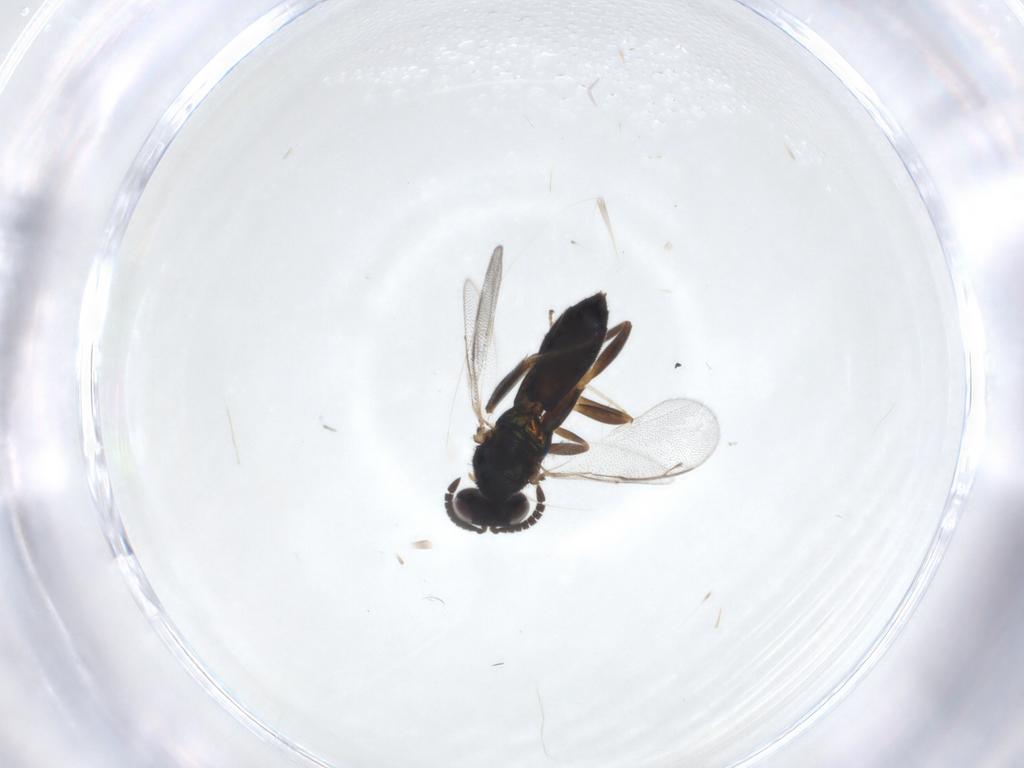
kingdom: Animalia
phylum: Arthropoda
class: Insecta
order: Hymenoptera
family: Cleonyminae
